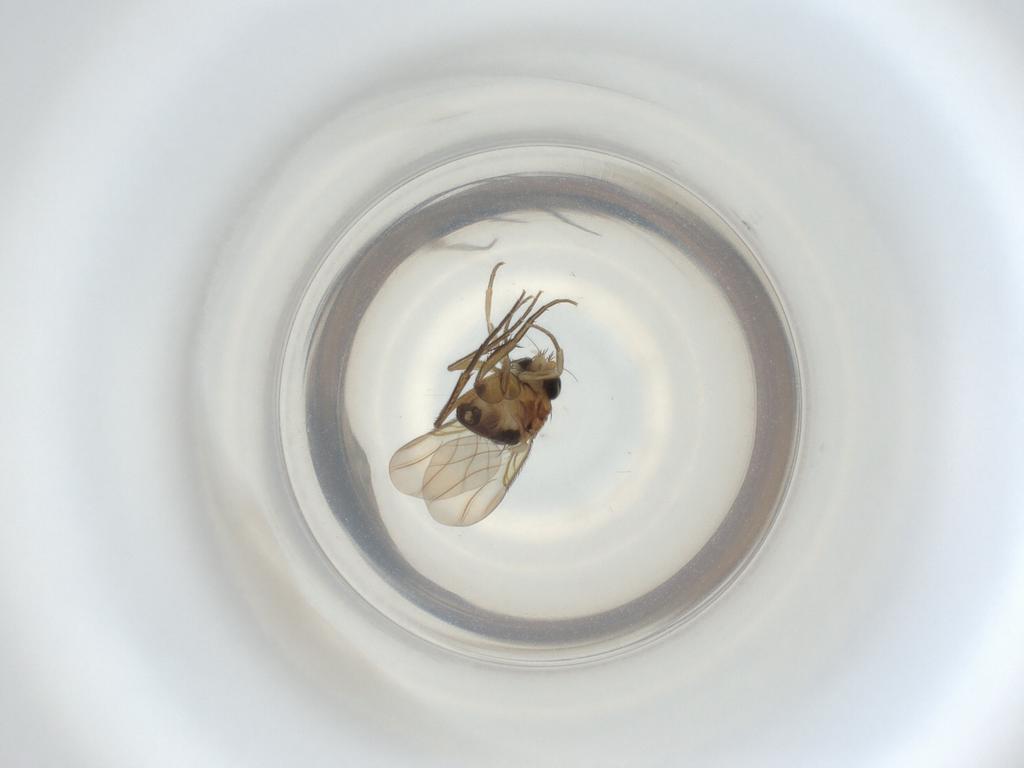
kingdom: Animalia
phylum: Arthropoda
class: Insecta
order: Diptera
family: Phoridae
